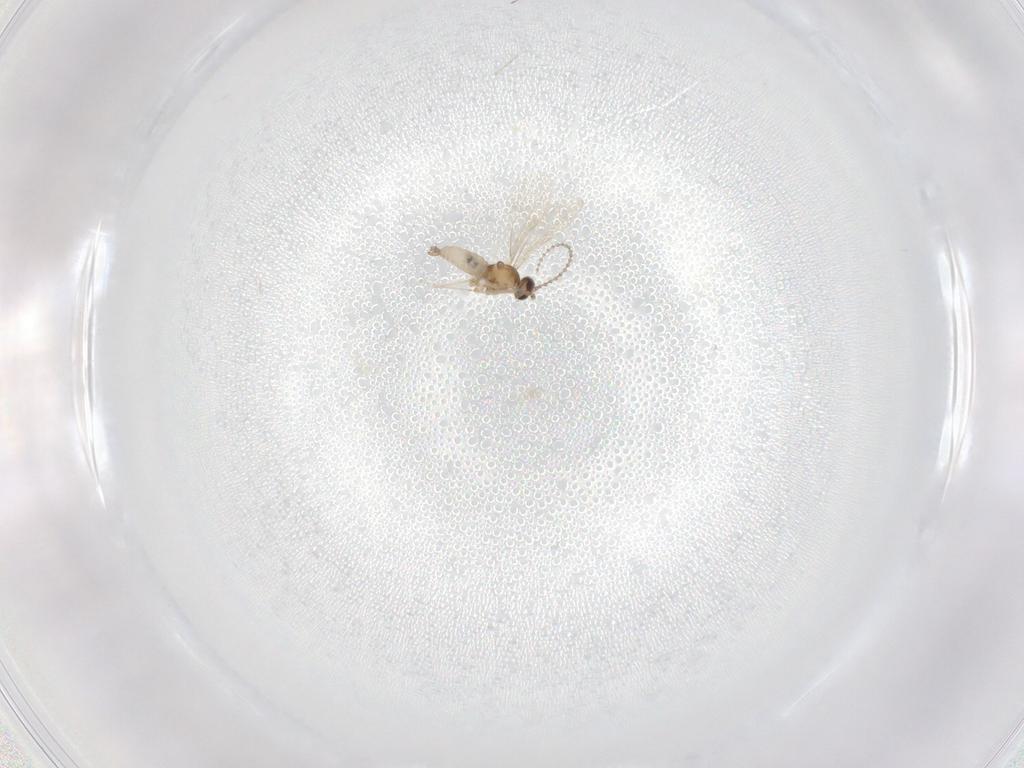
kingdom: Animalia
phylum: Arthropoda
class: Insecta
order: Diptera
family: Cecidomyiidae
